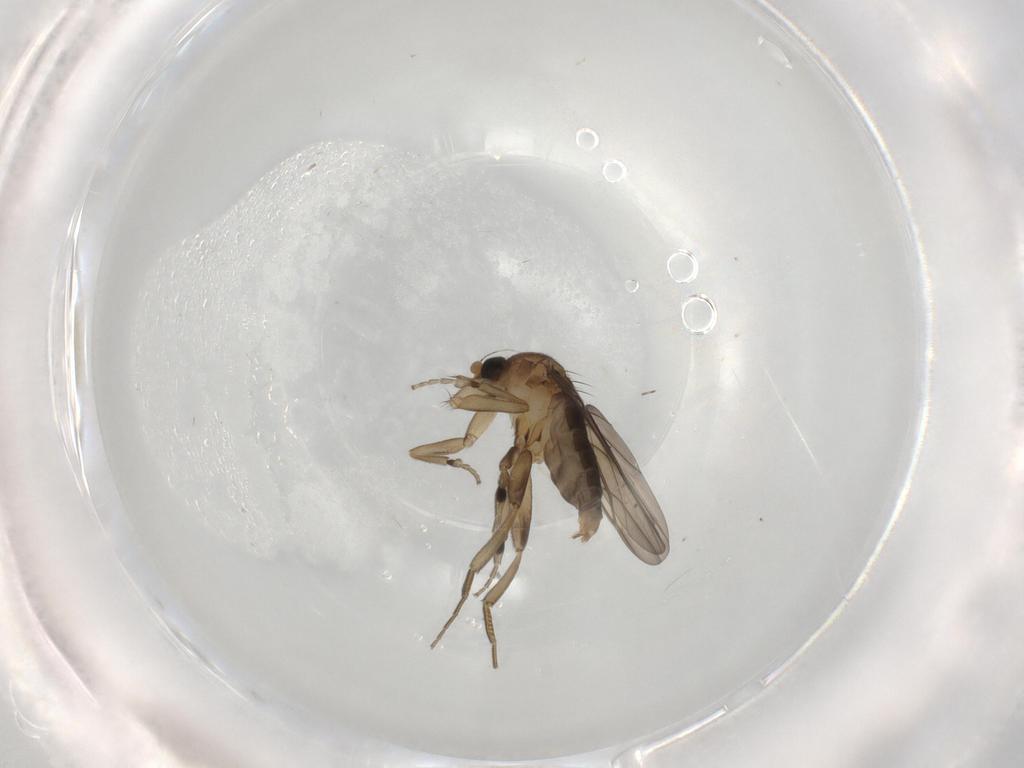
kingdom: Animalia
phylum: Arthropoda
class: Insecta
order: Diptera
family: Phoridae
